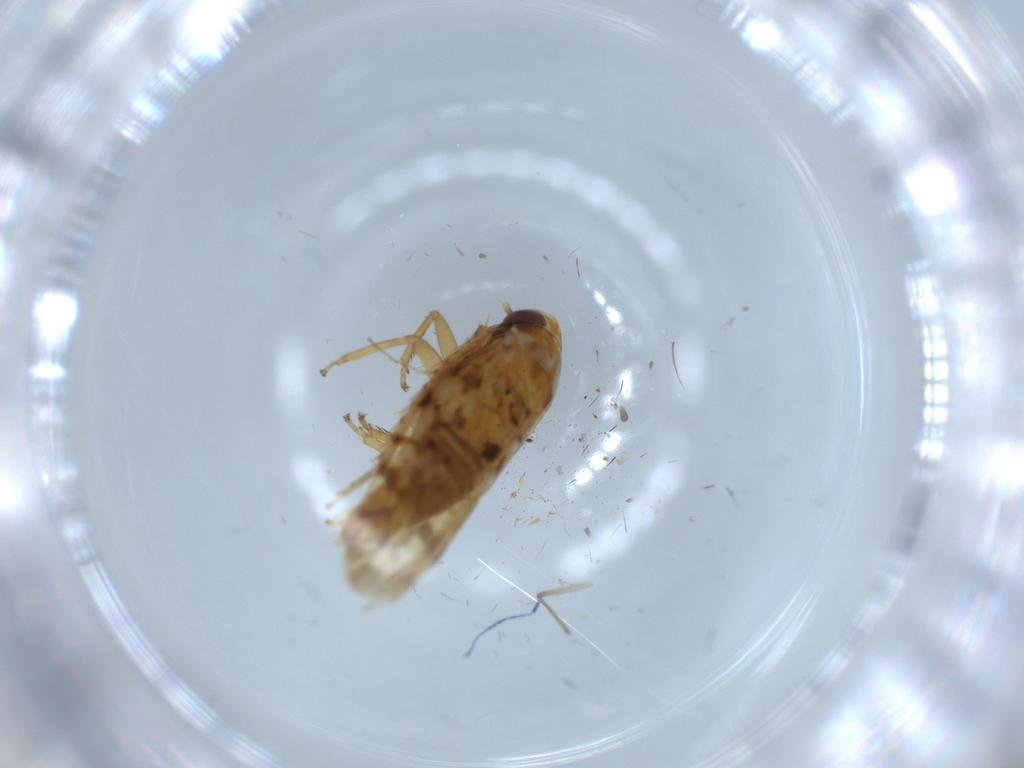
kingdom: Animalia
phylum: Arthropoda
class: Insecta
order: Hemiptera
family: Cicadellidae
